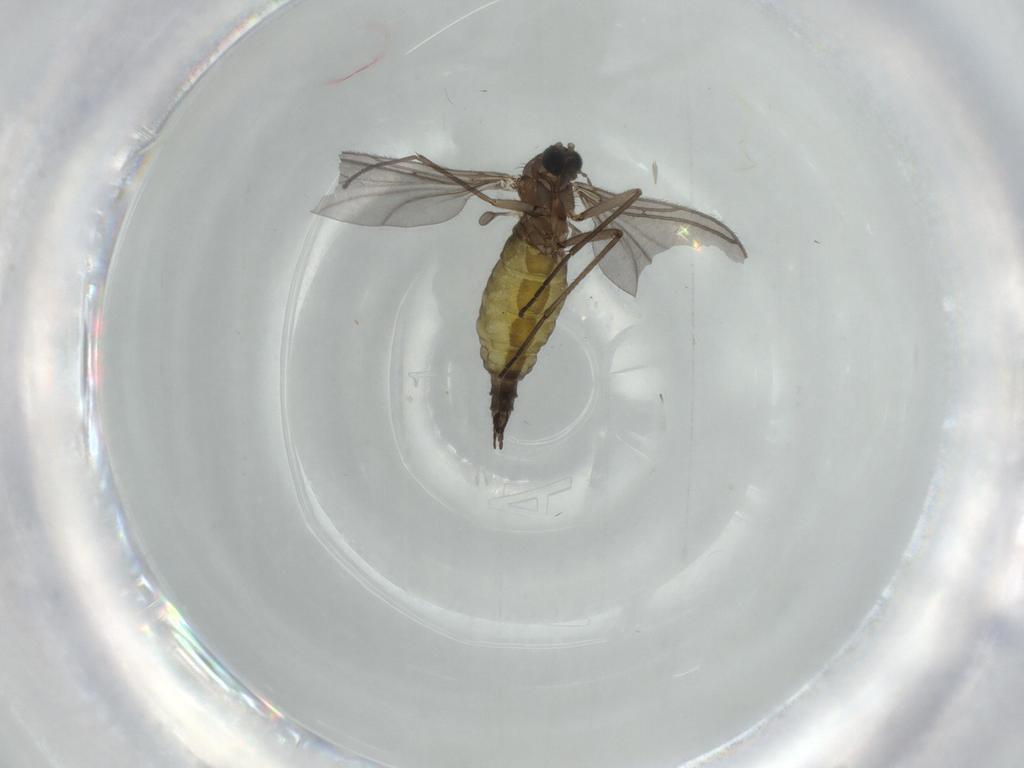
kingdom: Animalia
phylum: Arthropoda
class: Insecta
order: Diptera
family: Sciaridae
